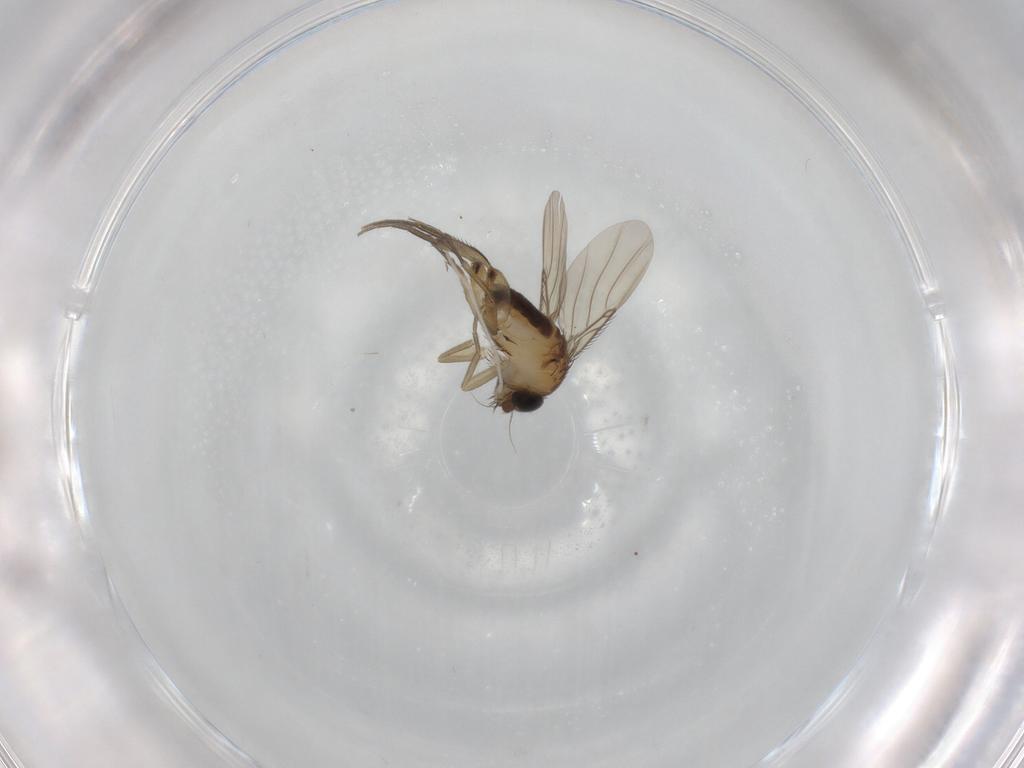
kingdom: Animalia
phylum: Arthropoda
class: Insecta
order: Diptera
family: Phoridae
